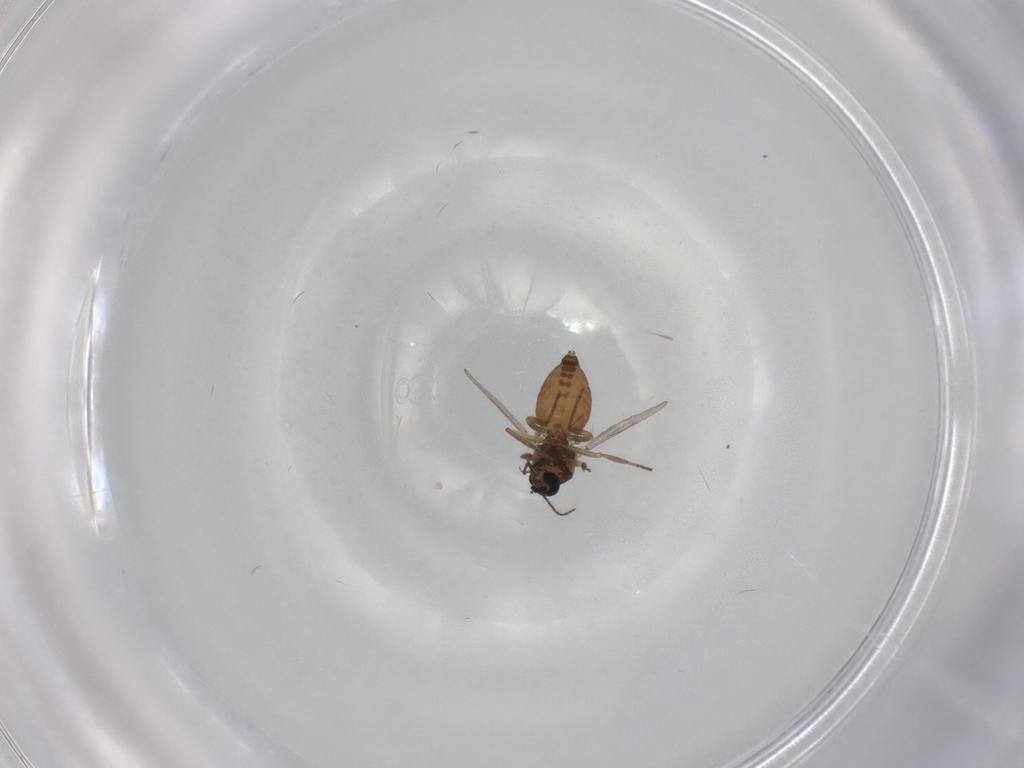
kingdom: Animalia
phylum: Arthropoda
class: Insecta
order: Diptera
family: Ceratopogonidae
